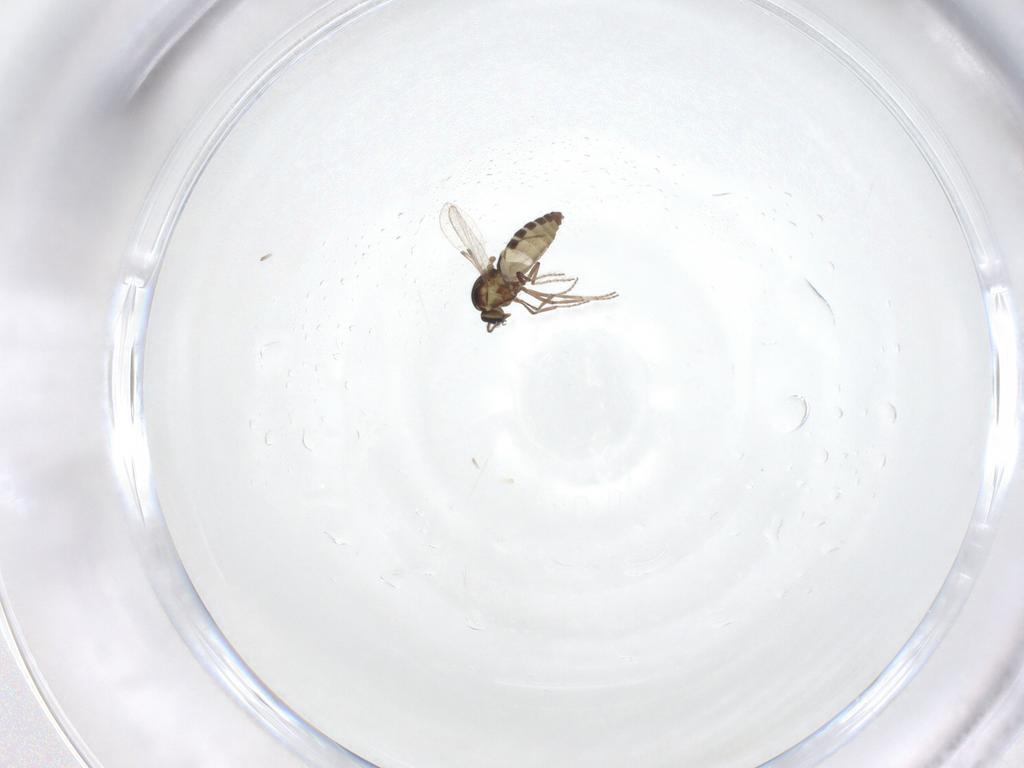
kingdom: Animalia
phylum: Arthropoda
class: Insecta
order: Diptera
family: Ceratopogonidae
